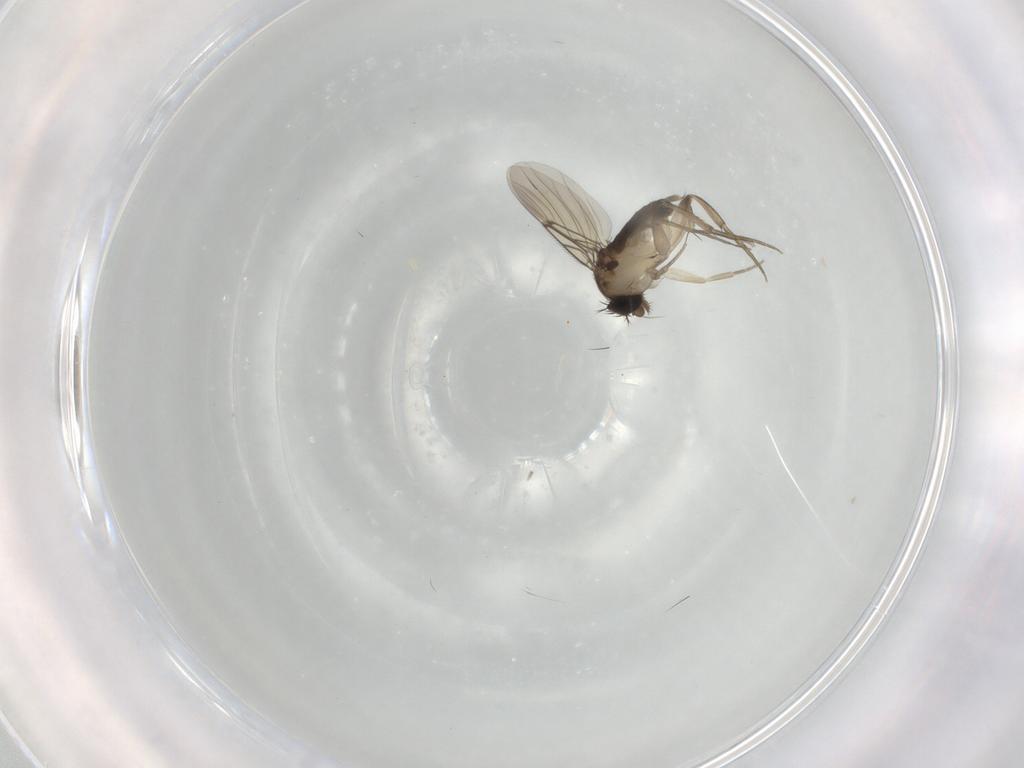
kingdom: Animalia
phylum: Arthropoda
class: Insecta
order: Diptera
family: Phoridae
